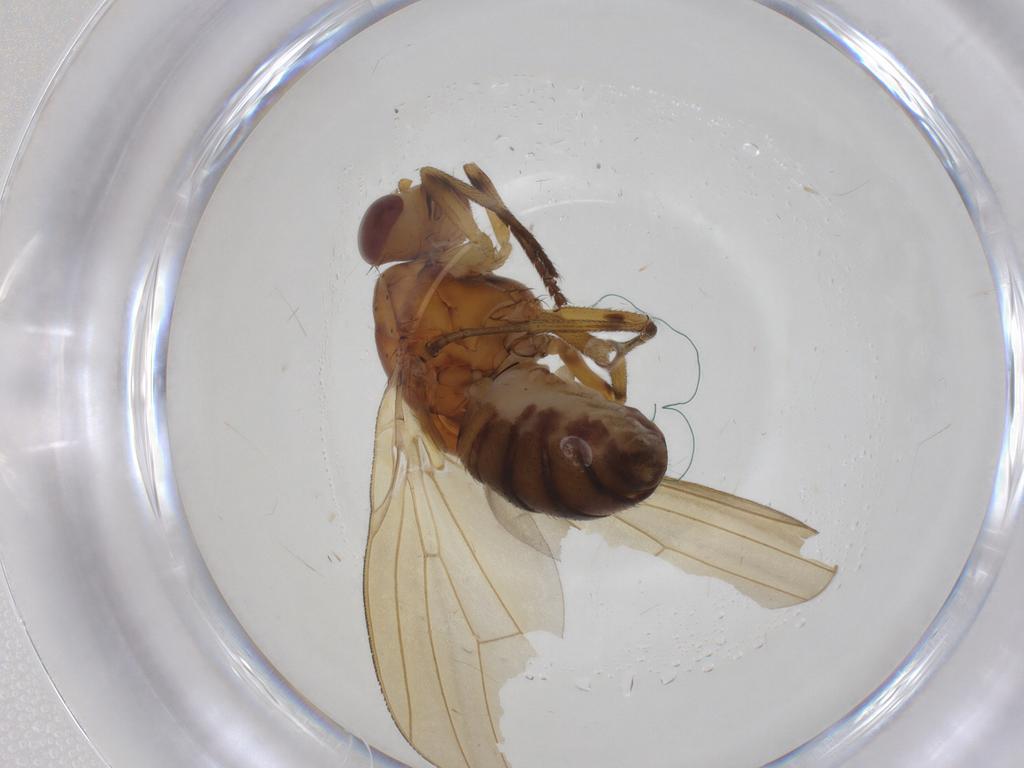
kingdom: Animalia
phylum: Arthropoda
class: Insecta
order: Diptera
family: Lauxaniidae
